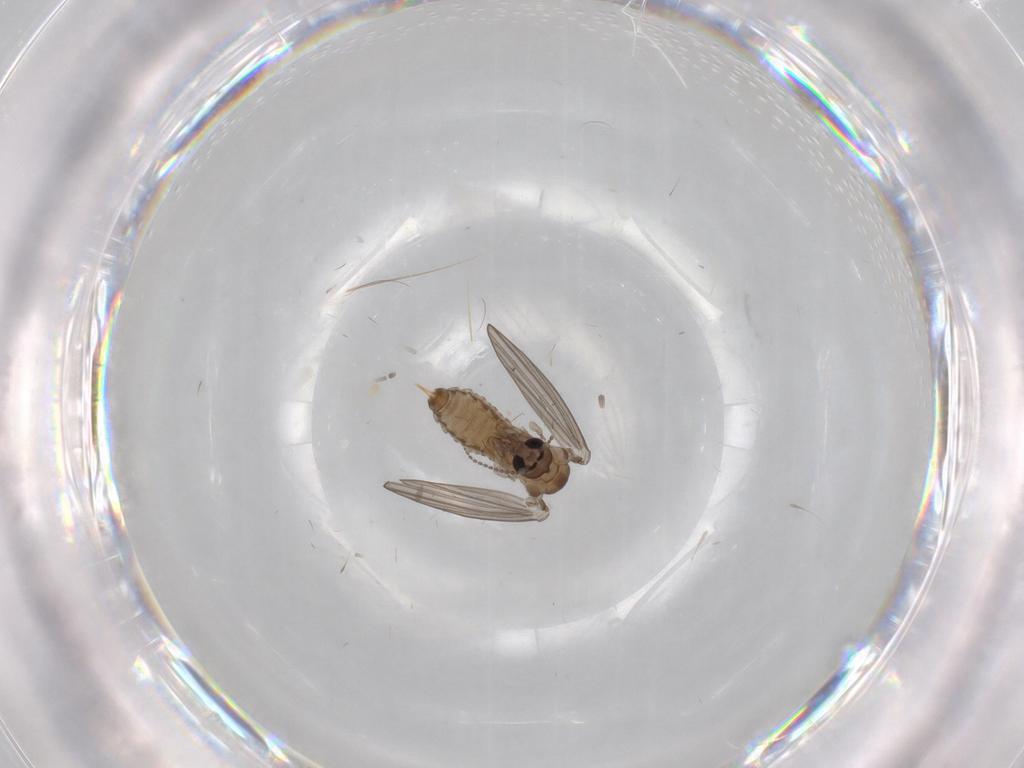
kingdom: Animalia
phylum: Arthropoda
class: Insecta
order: Diptera
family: Psychodidae
